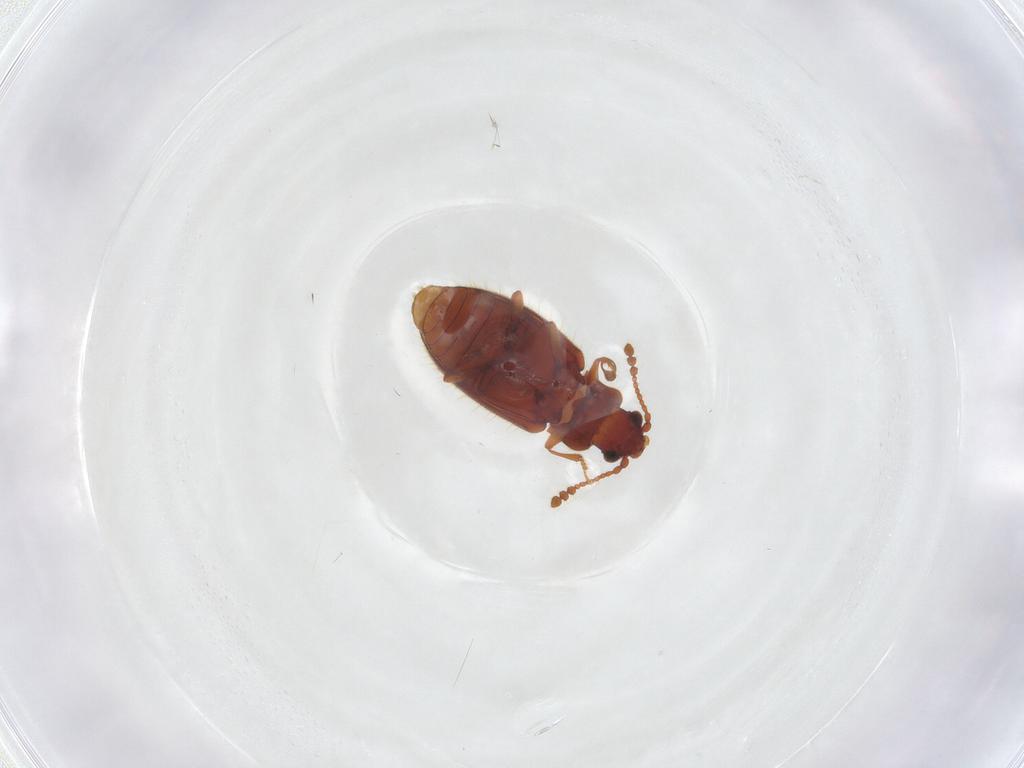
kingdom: Animalia
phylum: Arthropoda
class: Insecta
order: Coleoptera
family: Cryptophagidae
